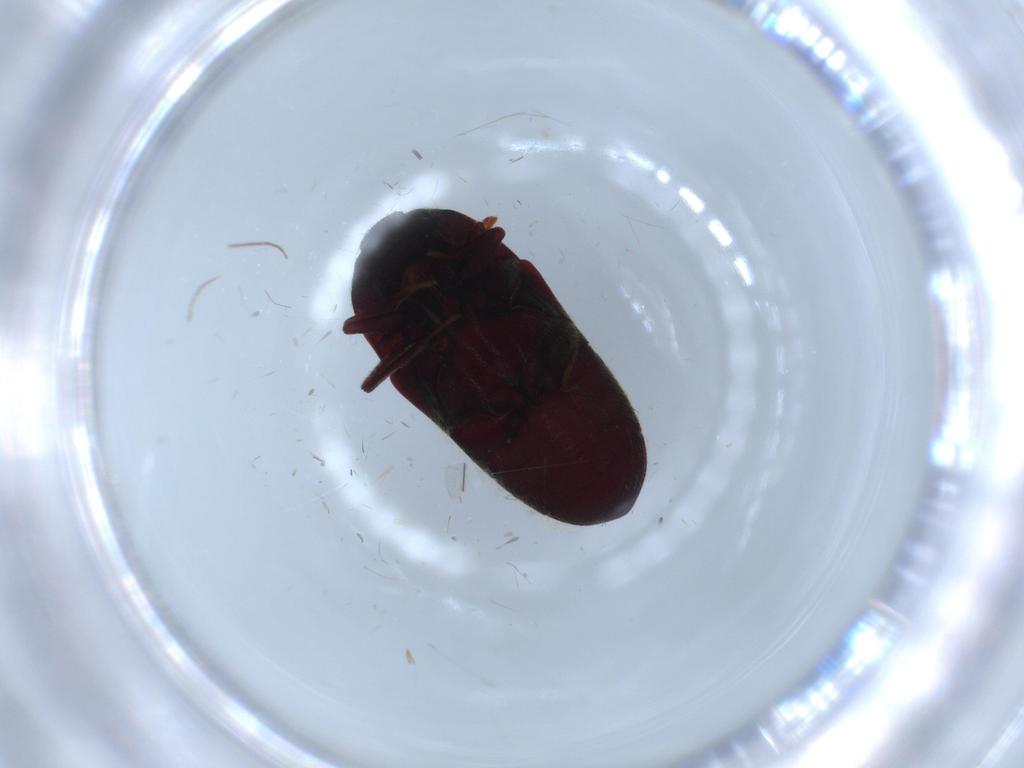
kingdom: Animalia
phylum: Arthropoda
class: Insecta
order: Coleoptera
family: Throscidae
